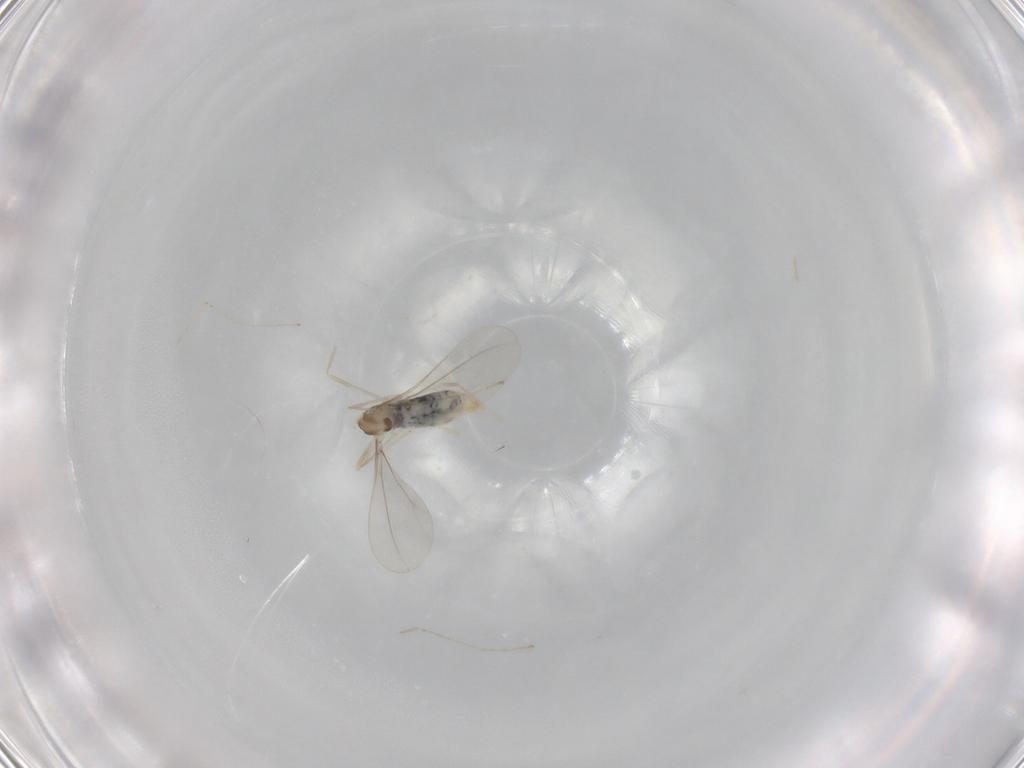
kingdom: Animalia
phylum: Arthropoda
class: Insecta
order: Diptera
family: Cecidomyiidae
